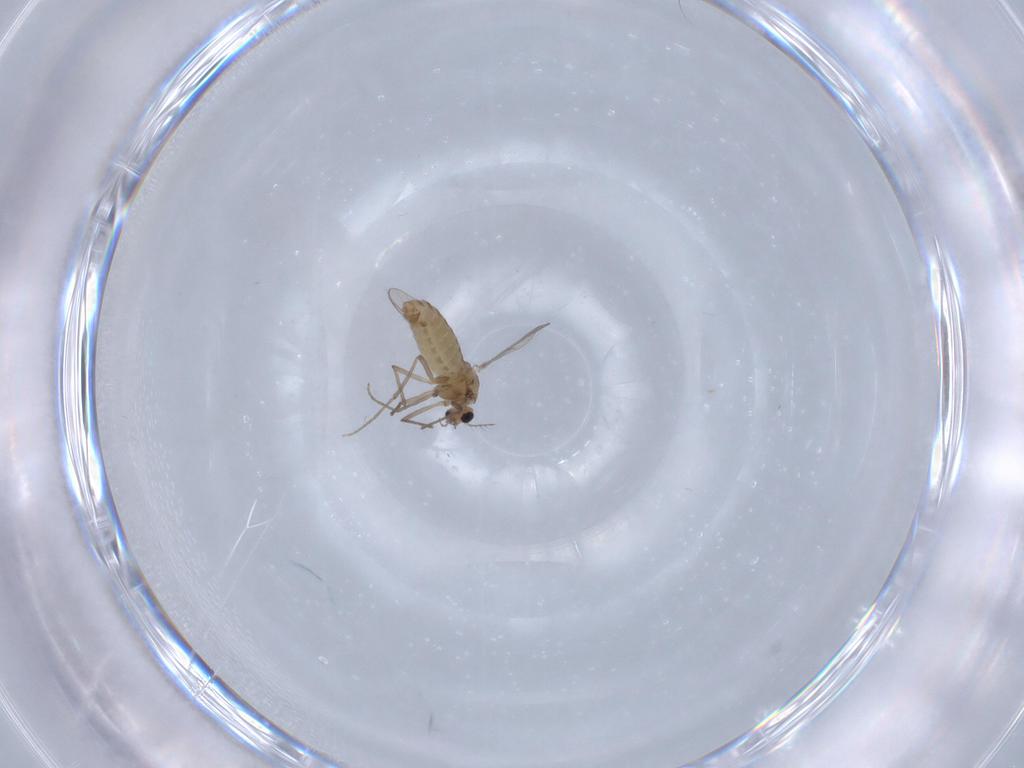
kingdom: Animalia
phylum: Arthropoda
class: Insecta
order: Diptera
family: Chironomidae
